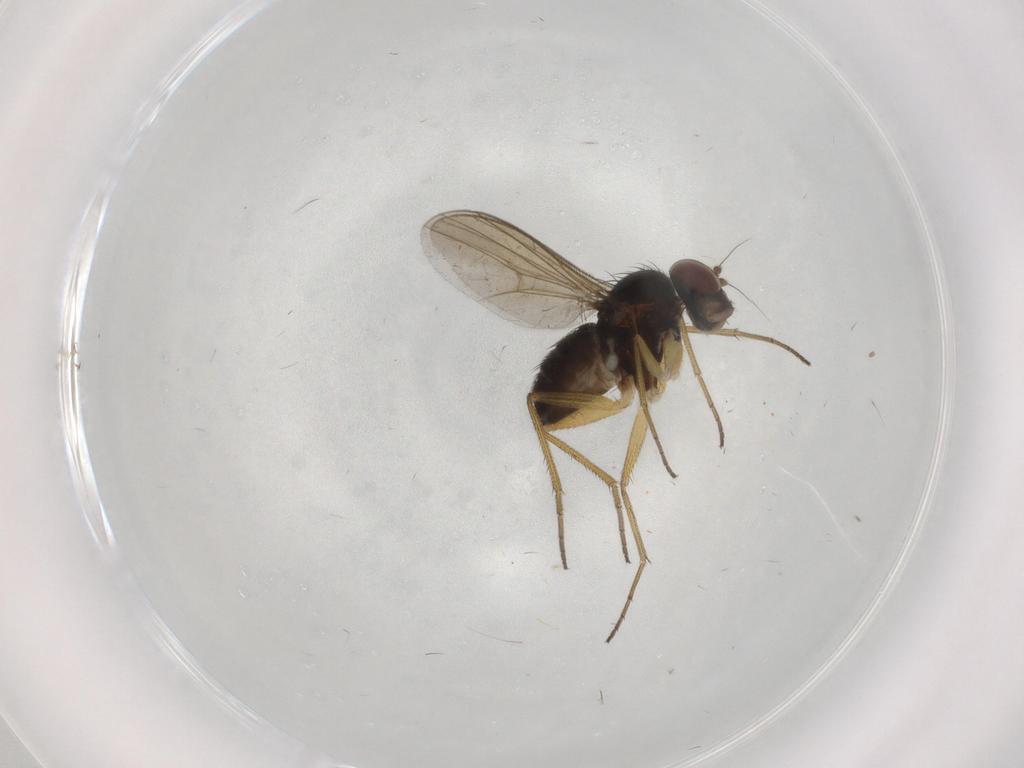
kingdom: Animalia
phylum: Arthropoda
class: Insecta
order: Diptera
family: Dolichopodidae
